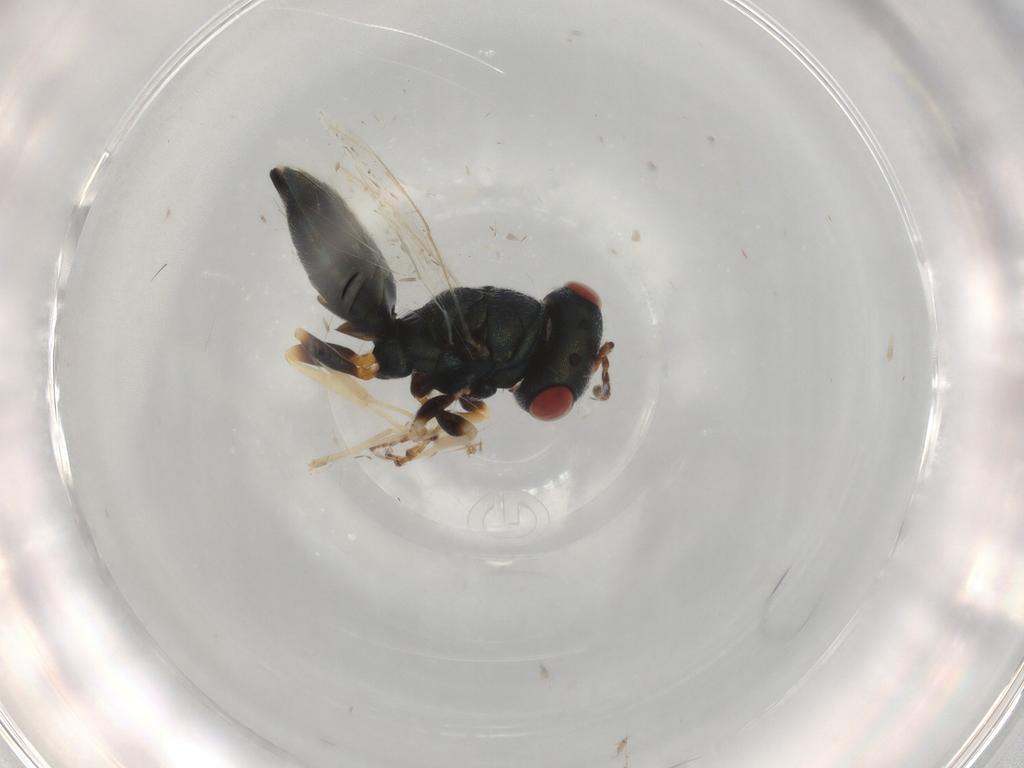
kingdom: Animalia
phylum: Arthropoda
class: Insecta
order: Hymenoptera
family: Pteromalidae
